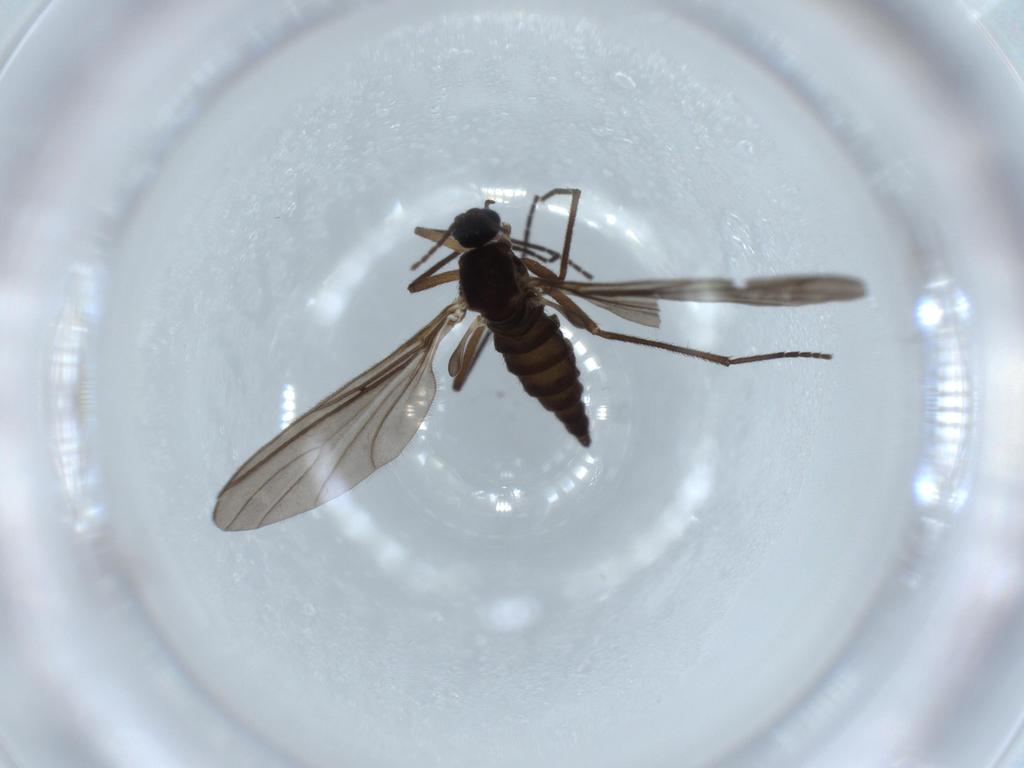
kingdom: Animalia
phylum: Arthropoda
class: Insecta
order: Diptera
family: Sciaridae
